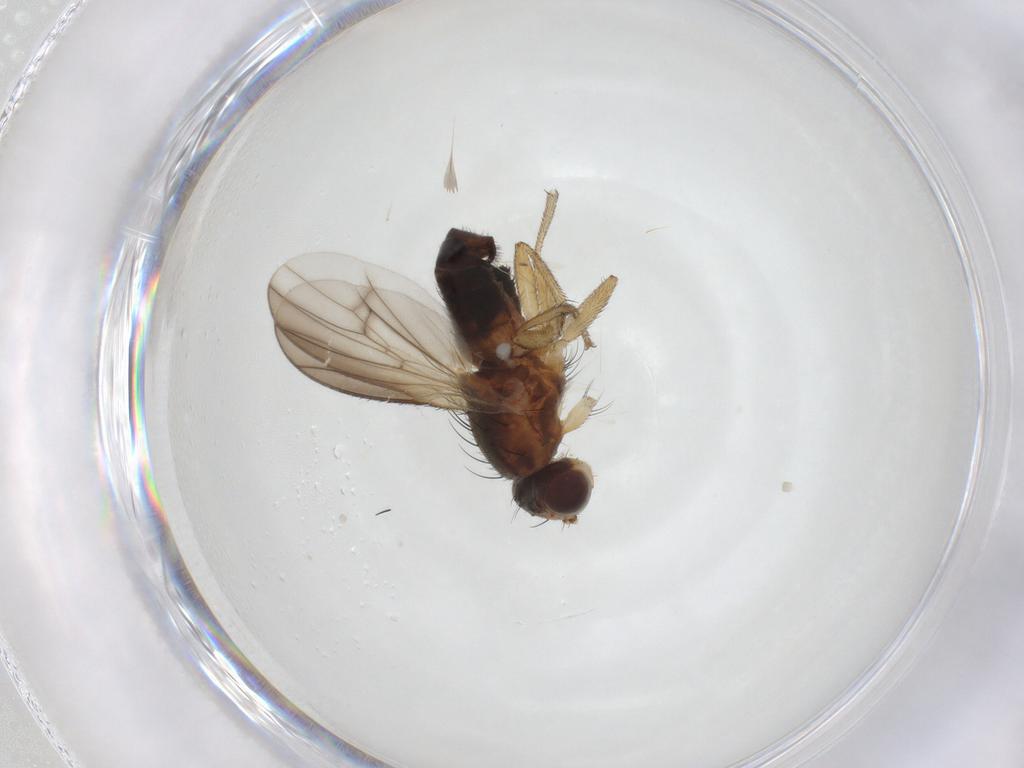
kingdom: Animalia
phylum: Arthropoda
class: Insecta
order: Diptera
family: Heleomyzidae
